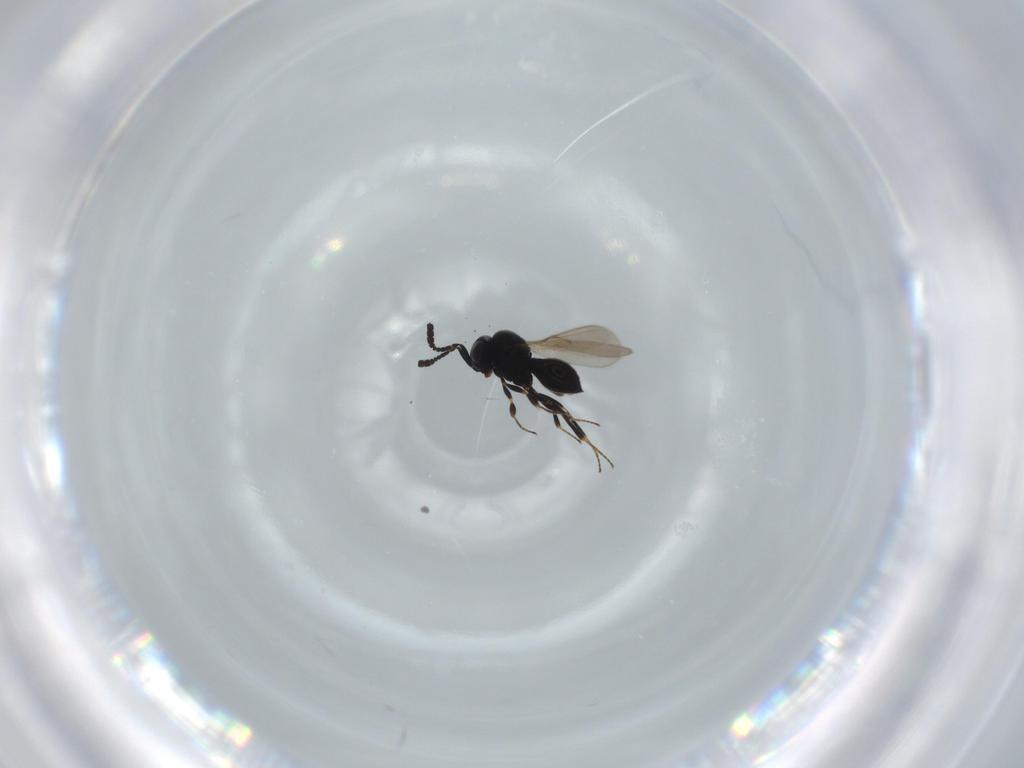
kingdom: Animalia
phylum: Arthropoda
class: Insecta
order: Hymenoptera
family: Scelionidae
